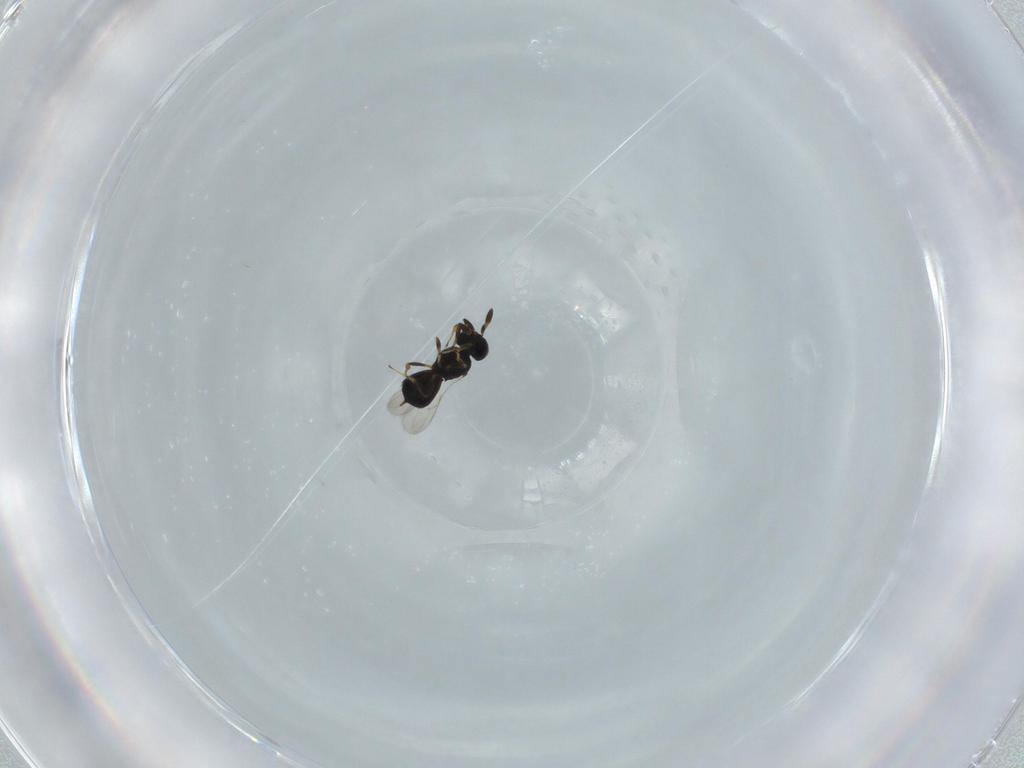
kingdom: Animalia
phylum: Arthropoda
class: Insecta
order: Hymenoptera
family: Scelionidae
